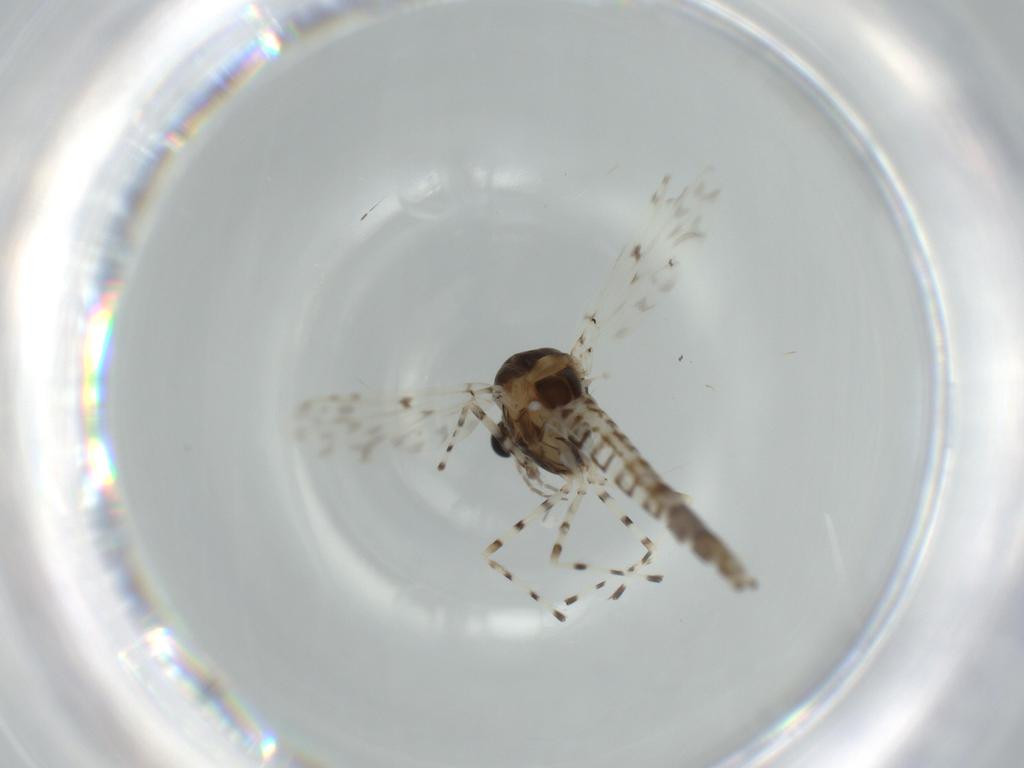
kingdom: Animalia
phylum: Arthropoda
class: Insecta
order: Diptera
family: Chironomidae
